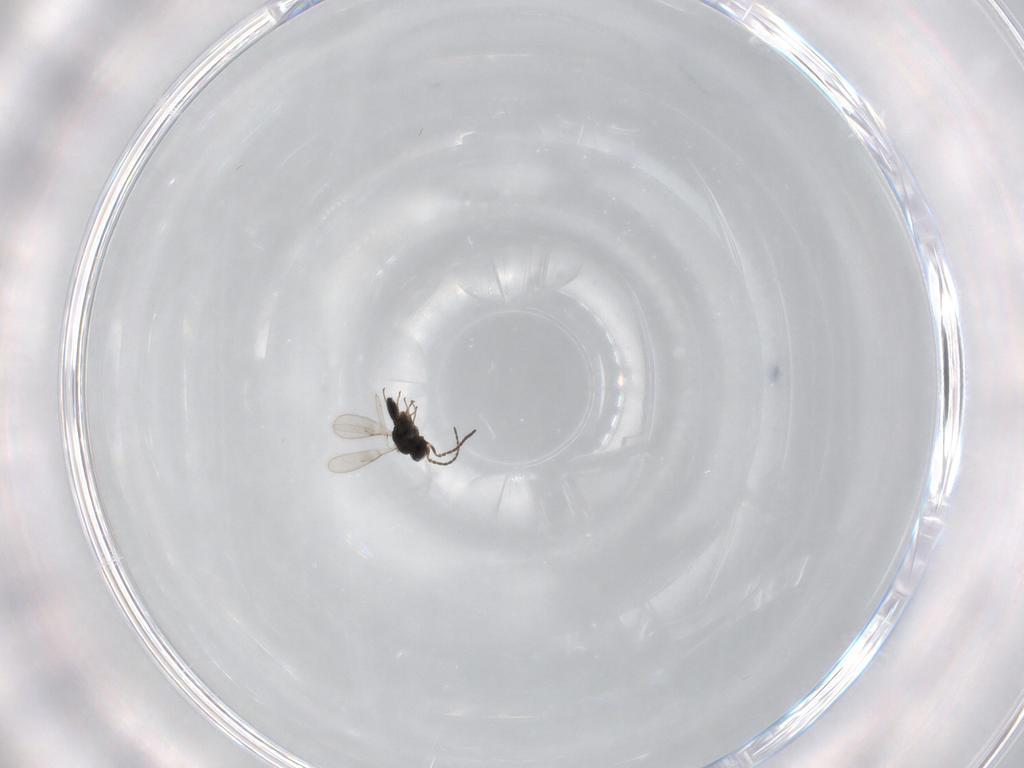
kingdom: Animalia
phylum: Arthropoda
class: Insecta
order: Hymenoptera
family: Scelionidae
